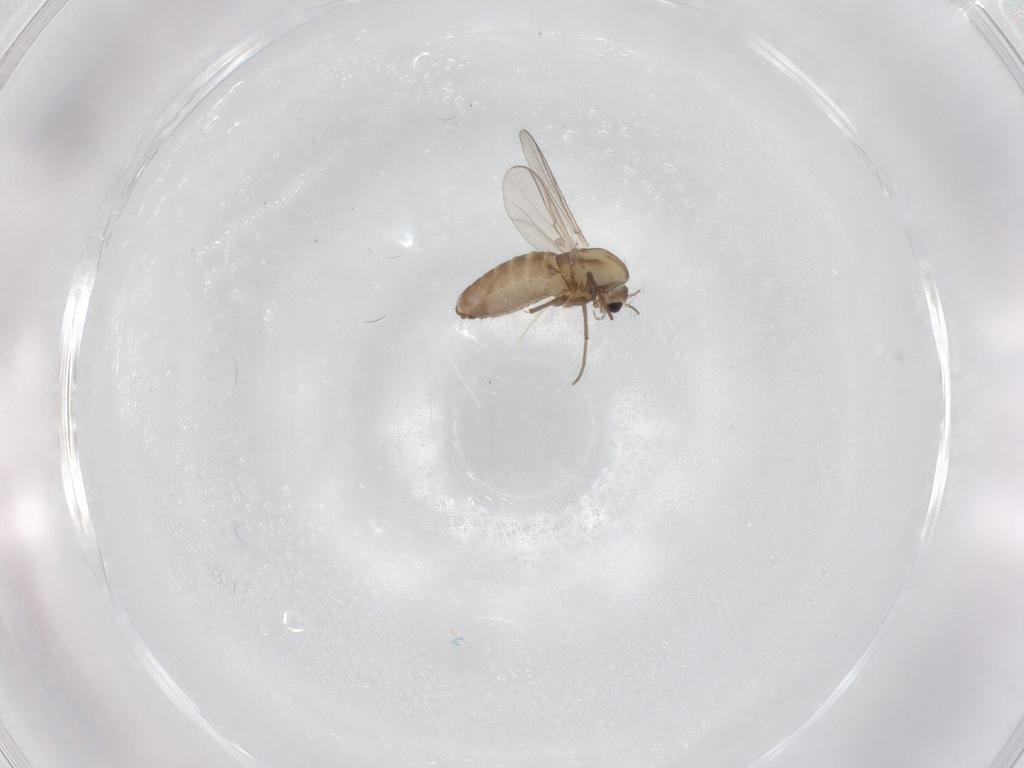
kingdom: Animalia
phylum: Arthropoda
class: Insecta
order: Diptera
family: Chironomidae
